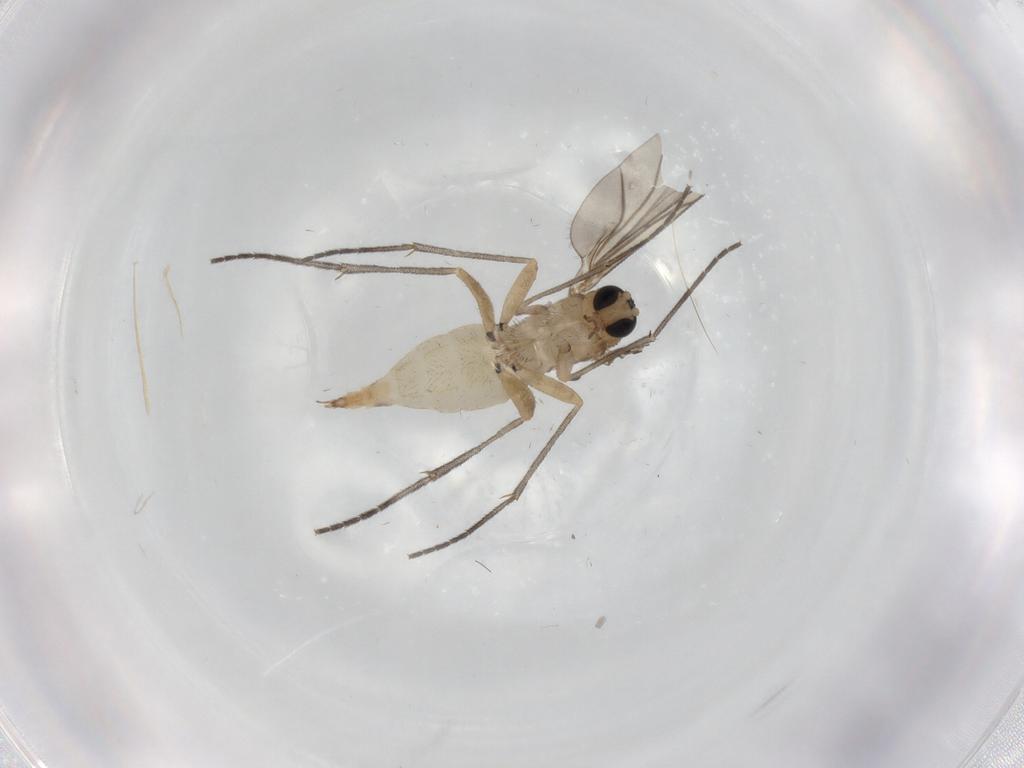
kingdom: Animalia
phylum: Arthropoda
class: Insecta
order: Diptera
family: Sciaridae
